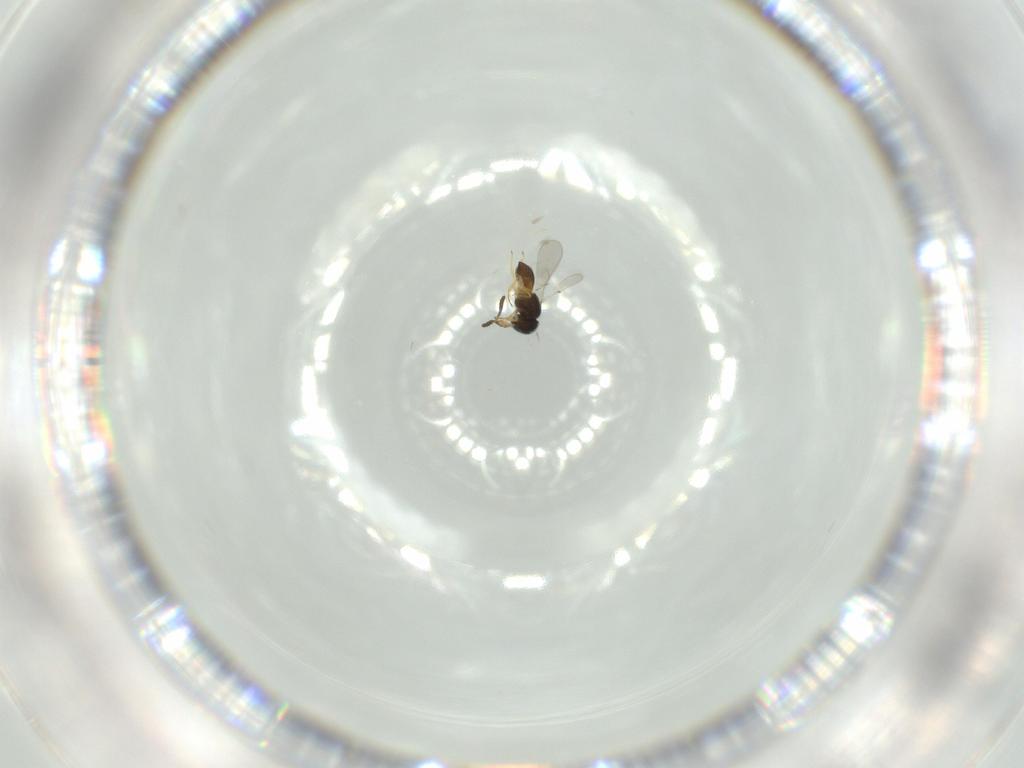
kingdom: Animalia
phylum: Arthropoda
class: Insecta
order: Hymenoptera
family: Scelionidae
